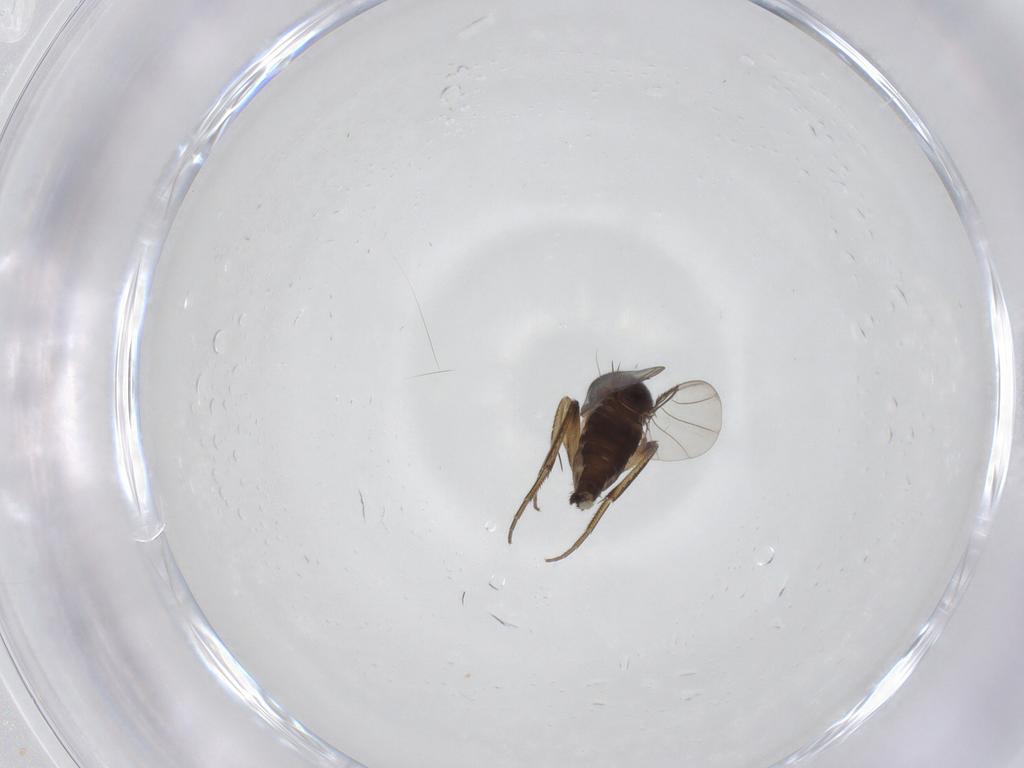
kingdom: Animalia
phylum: Arthropoda
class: Insecta
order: Diptera
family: Phoridae
